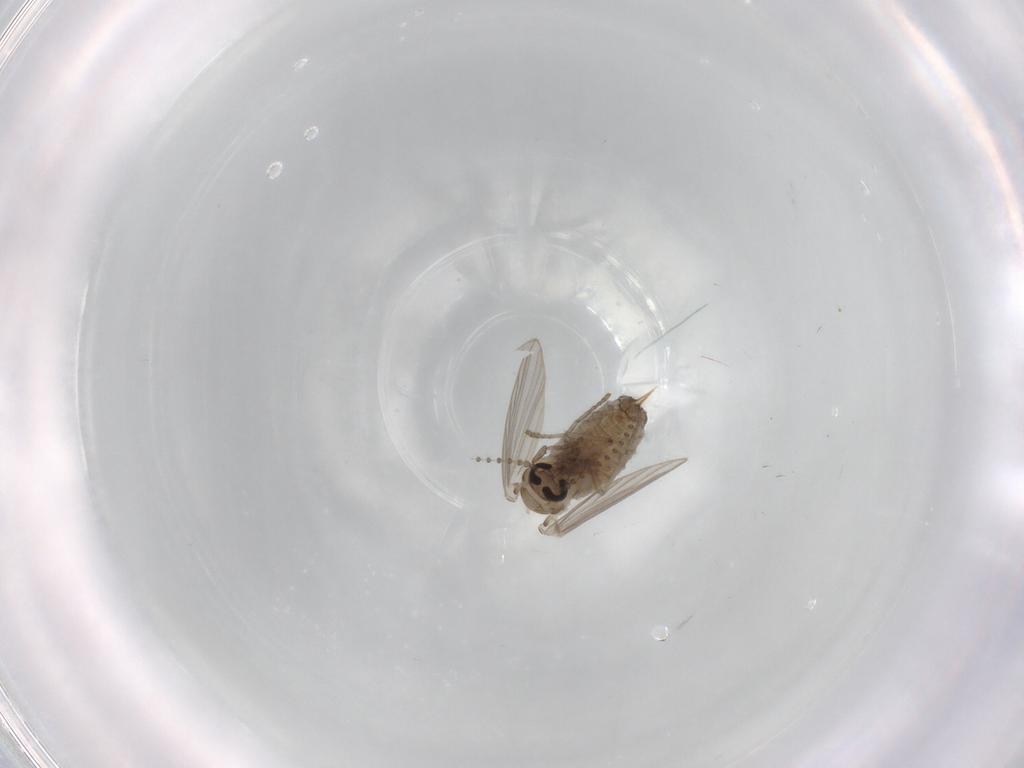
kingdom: Animalia
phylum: Arthropoda
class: Insecta
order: Diptera
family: Psychodidae
